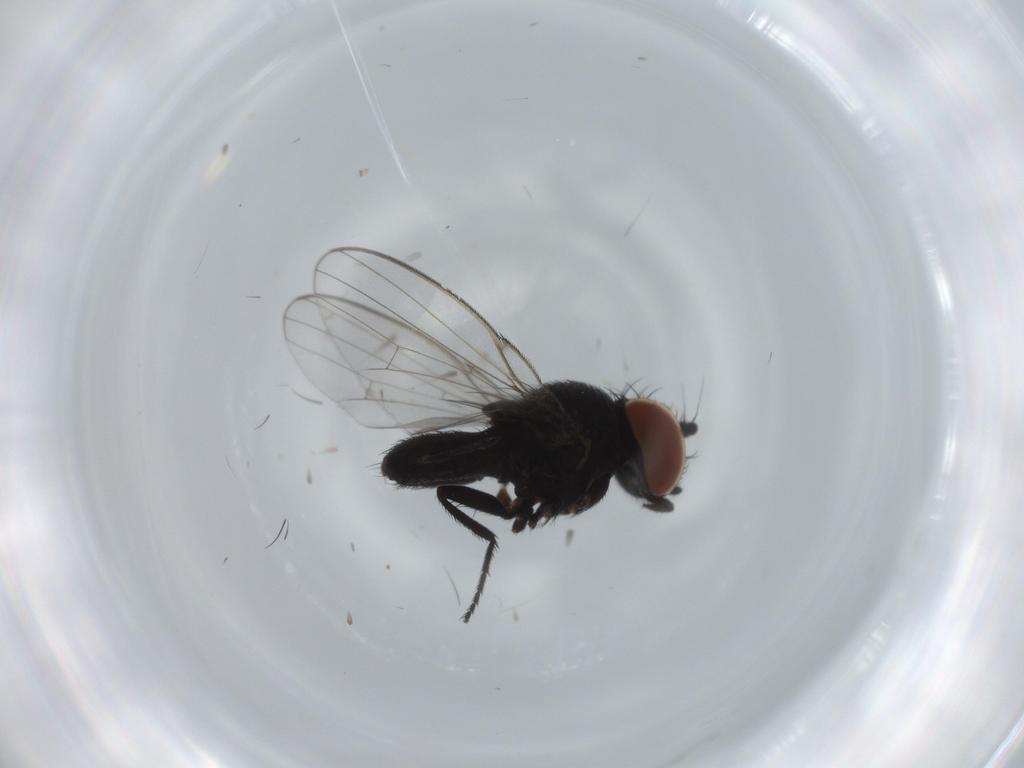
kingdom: Animalia
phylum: Arthropoda
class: Insecta
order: Diptera
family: Milichiidae
